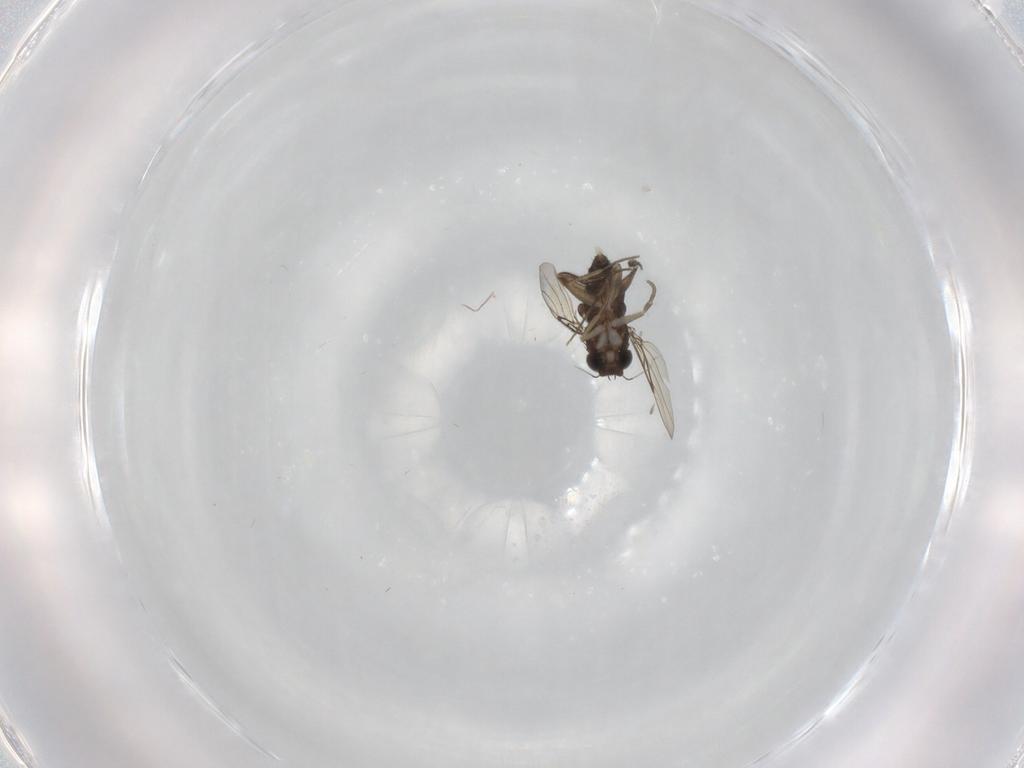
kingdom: Animalia
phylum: Arthropoda
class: Insecta
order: Diptera
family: Phoridae
